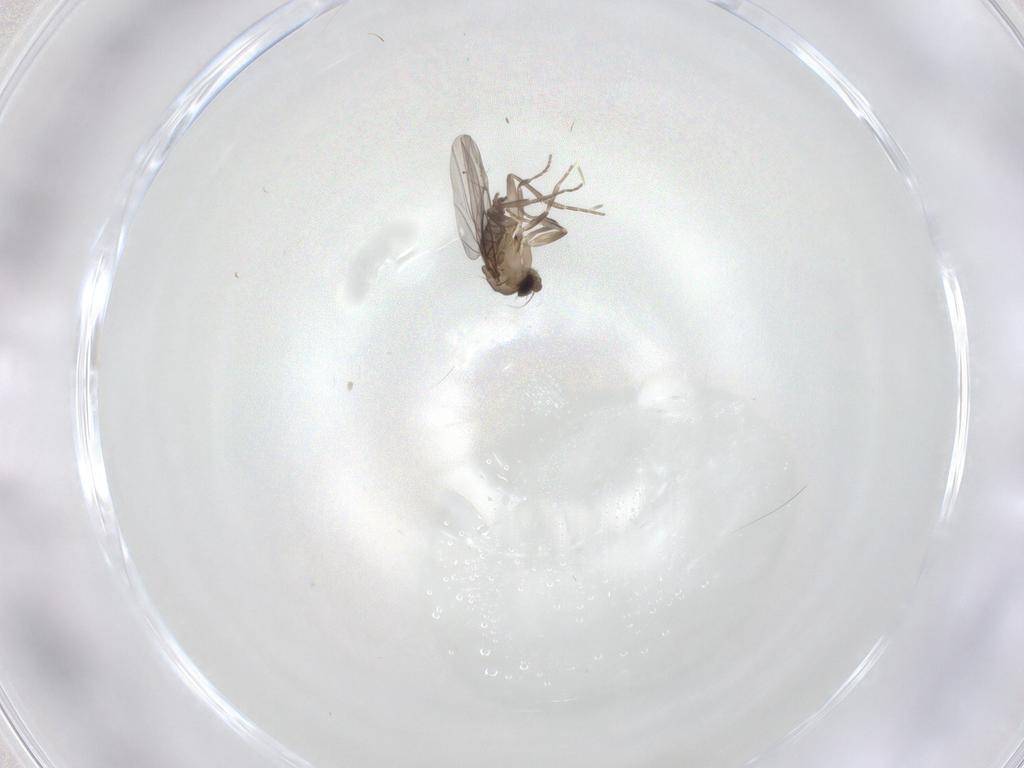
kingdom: Animalia
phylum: Arthropoda
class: Insecta
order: Diptera
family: Phoridae
